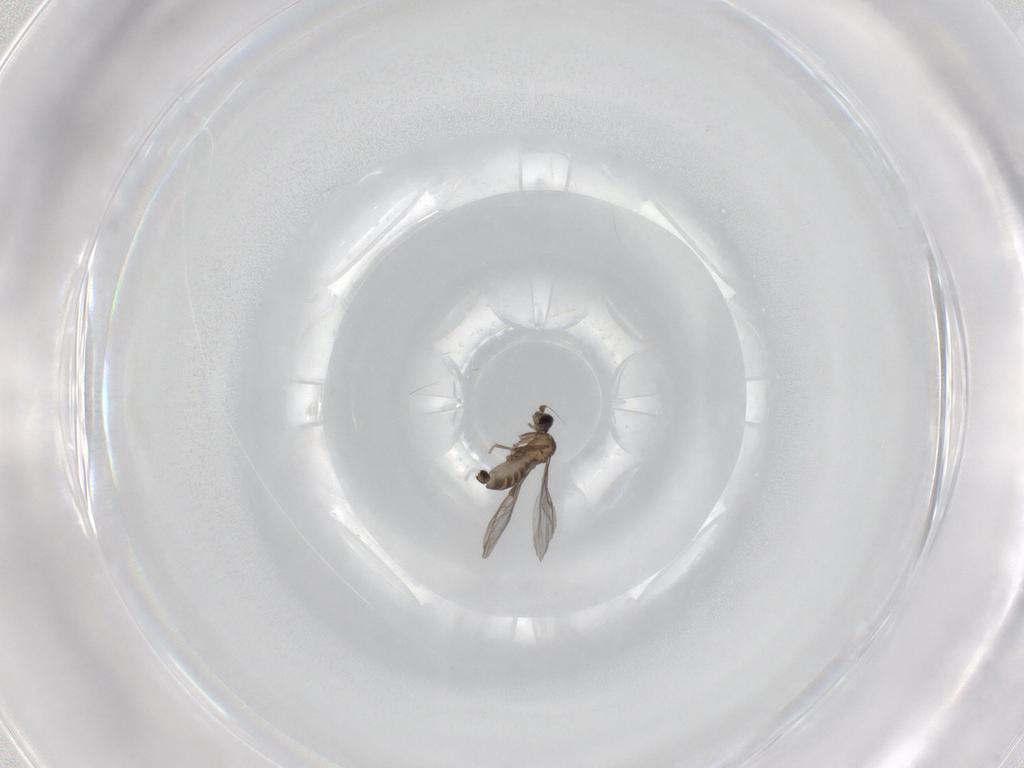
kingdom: Animalia
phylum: Arthropoda
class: Insecta
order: Diptera
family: Phoridae
